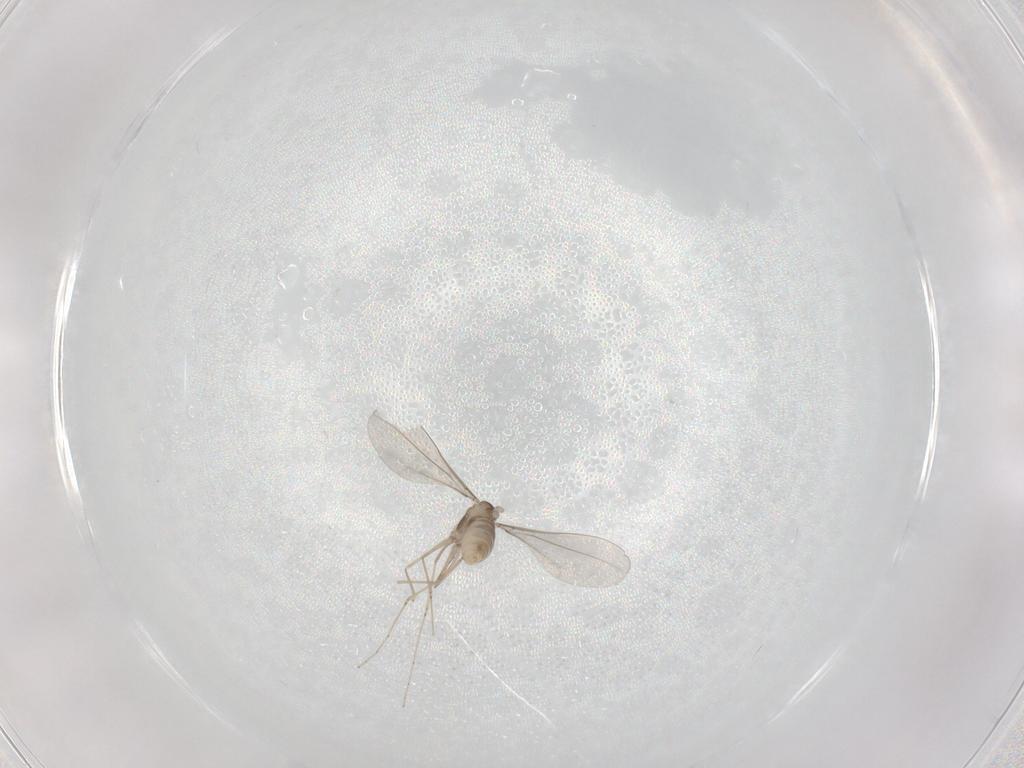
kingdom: Animalia
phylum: Arthropoda
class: Insecta
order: Diptera
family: Cecidomyiidae
